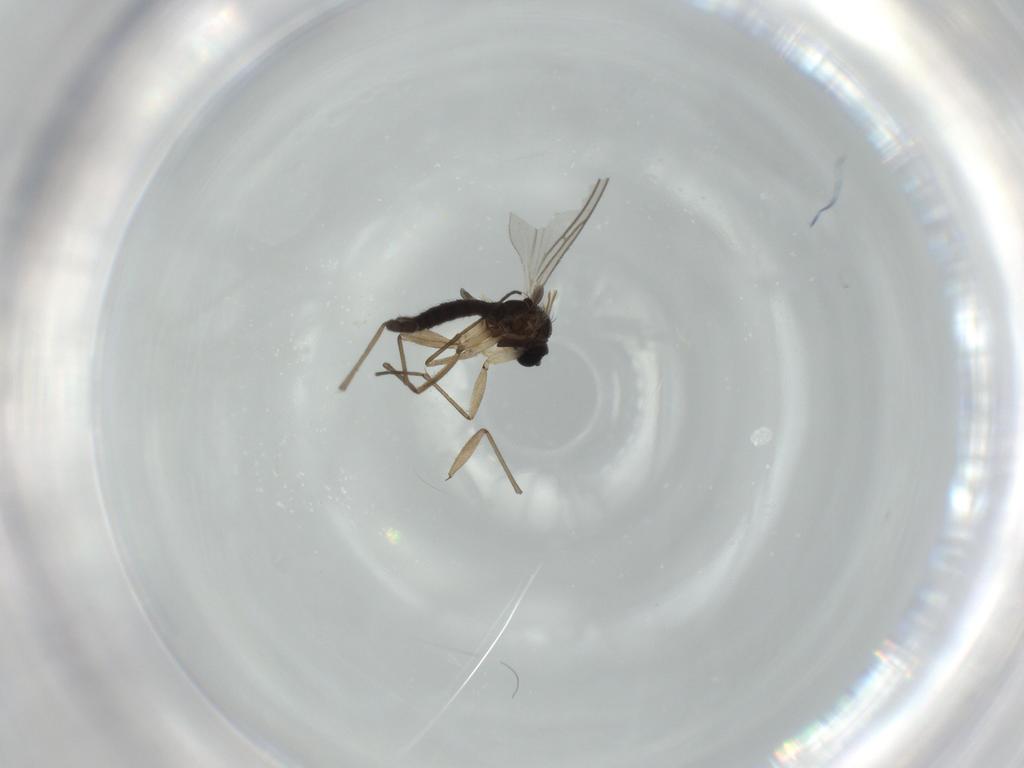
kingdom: Animalia
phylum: Arthropoda
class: Insecta
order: Diptera
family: Sciaridae
